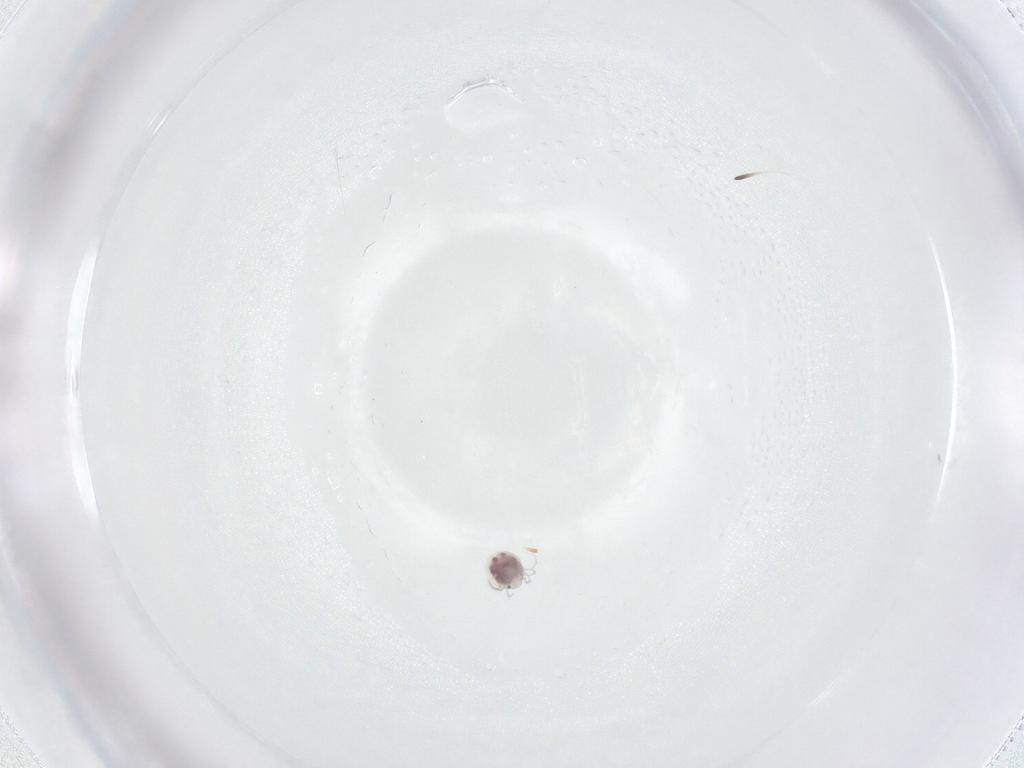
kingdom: Animalia
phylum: Arthropoda
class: Arachnida
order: Trombidiformes
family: Pionidae
